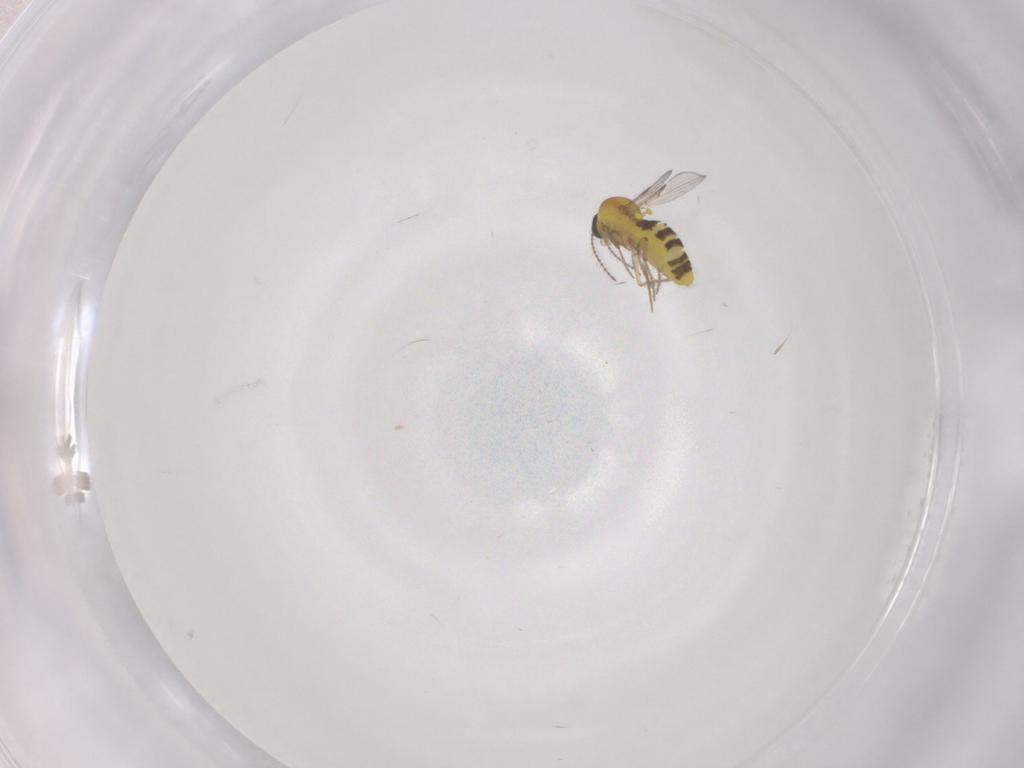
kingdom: Animalia
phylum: Arthropoda
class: Insecta
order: Diptera
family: Ceratopogonidae
